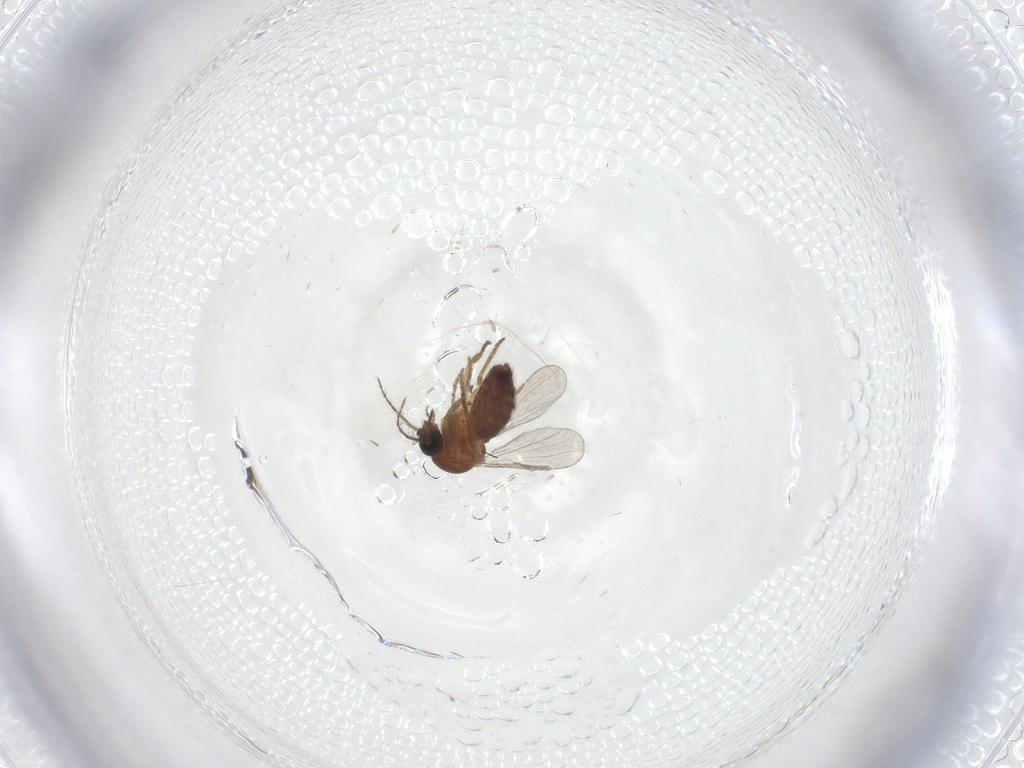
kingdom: Animalia
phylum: Arthropoda
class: Insecta
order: Diptera
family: Ceratopogonidae
